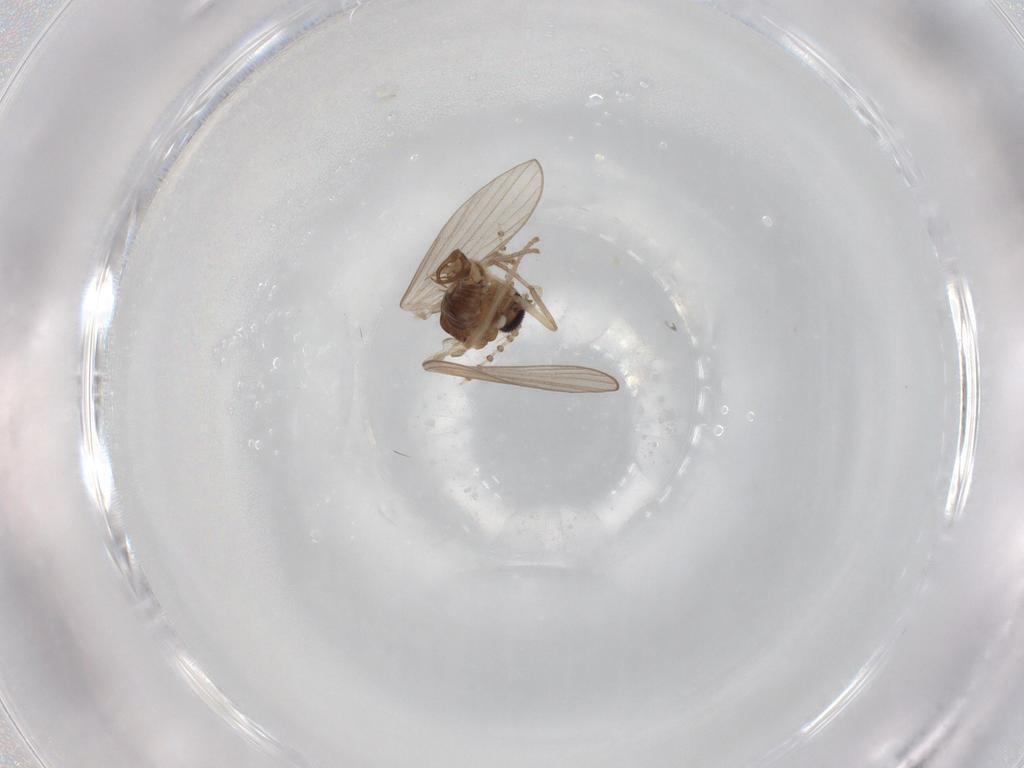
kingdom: Animalia
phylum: Arthropoda
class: Insecta
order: Diptera
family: Psychodidae
